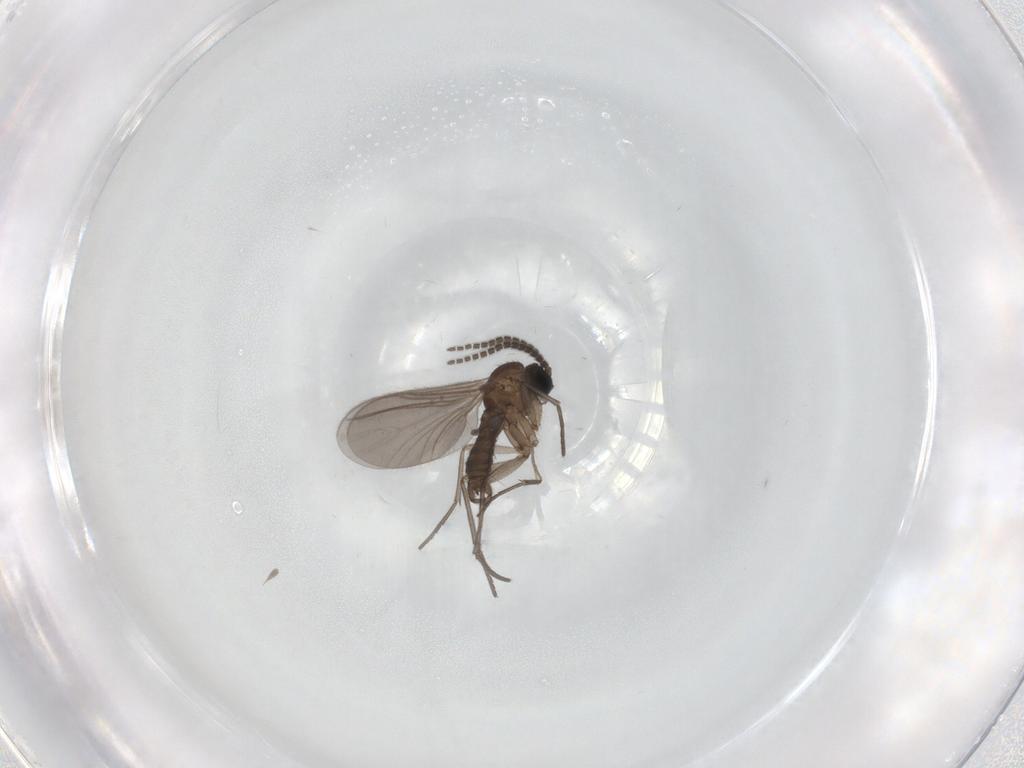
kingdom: Animalia
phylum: Arthropoda
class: Insecta
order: Diptera
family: Sciaridae
